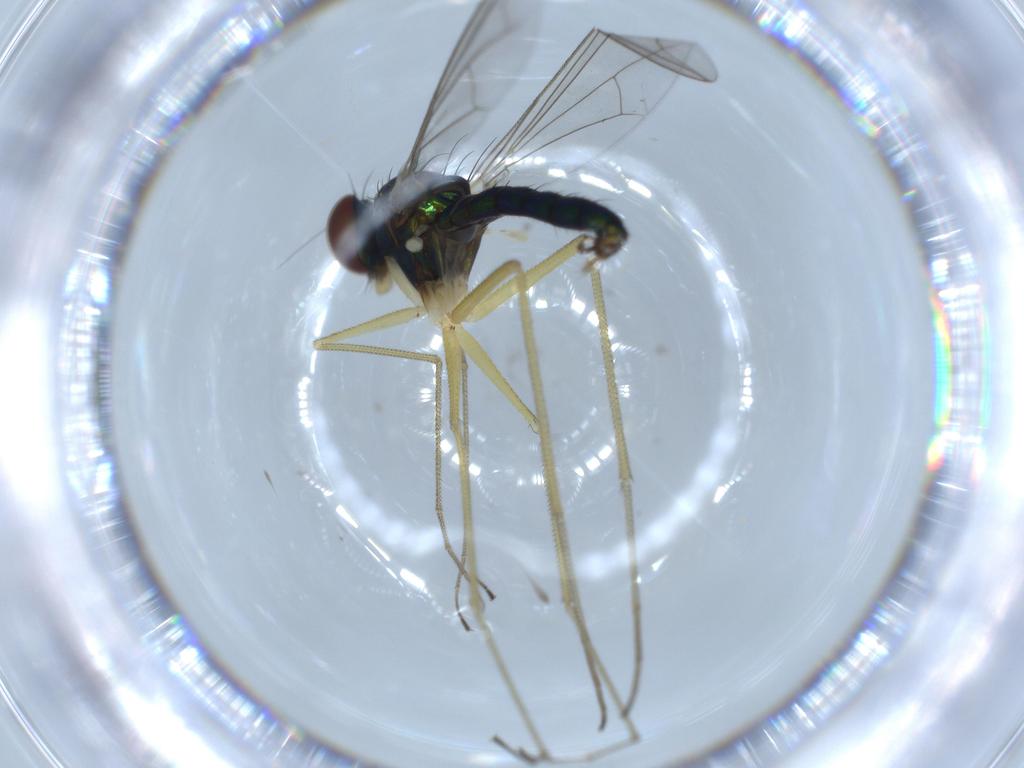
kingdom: Animalia
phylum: Arthropoda
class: Insecta
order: Diptera
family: Dolichopodidae
